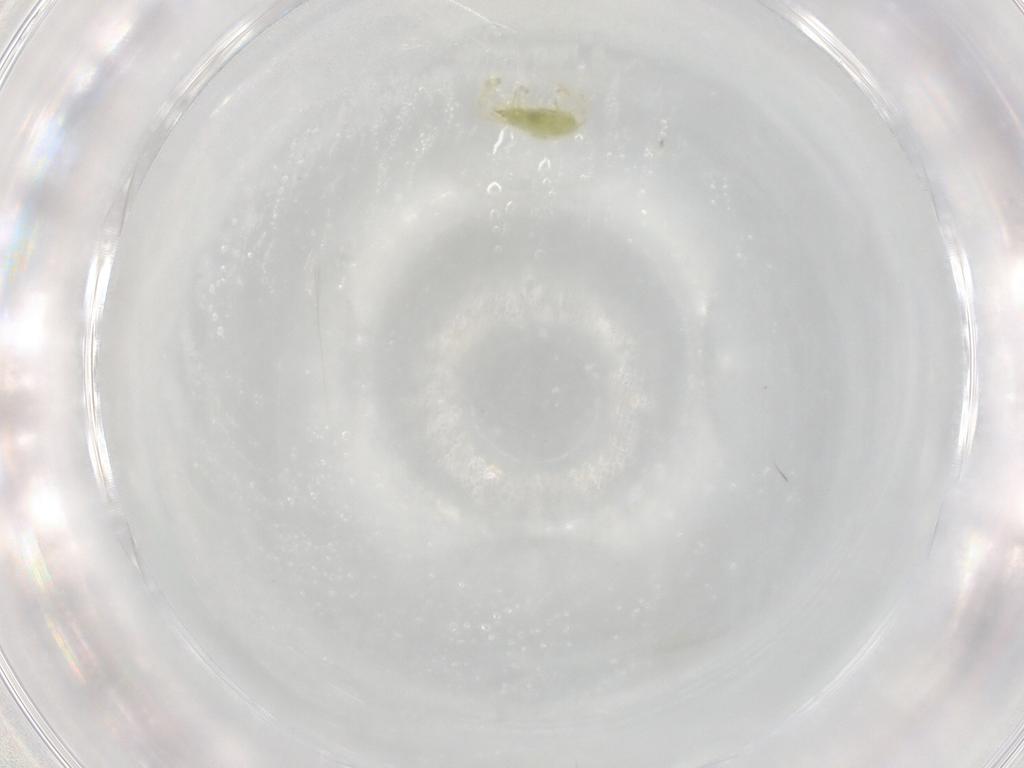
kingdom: Animalia
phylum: Arthropoda
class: Arachnida
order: Trombidiformes
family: Erythraeidae
